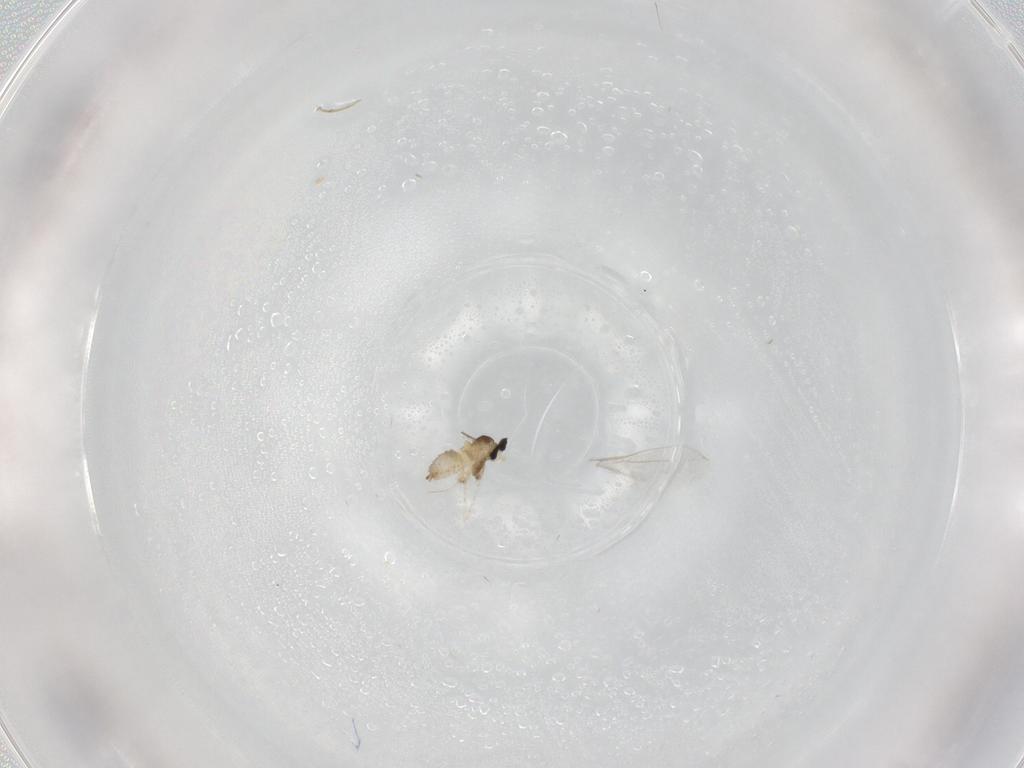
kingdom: Animalia
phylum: Arthropoda
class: Insecta
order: Diptera
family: Cecidomyiidae
